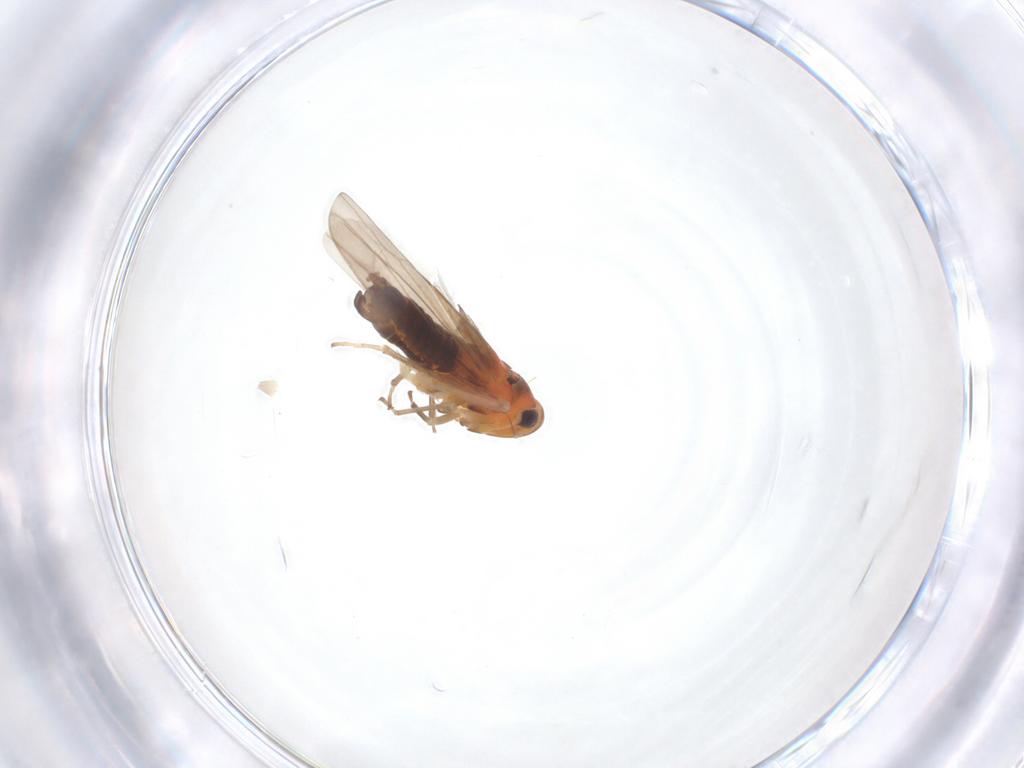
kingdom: Animalia
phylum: Arthropoda
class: Insecta
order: Hemiptera
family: Cicadellidae
